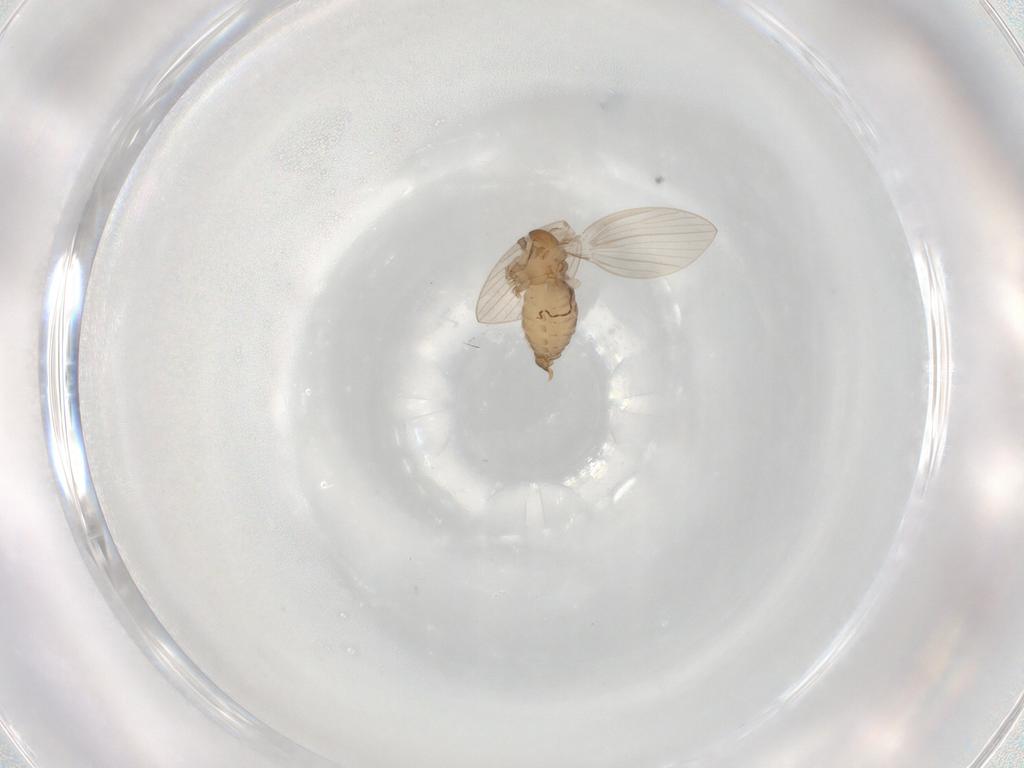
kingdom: Animalia
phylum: Arthropoda
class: Insecta
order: Diptera
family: Psychodidae
